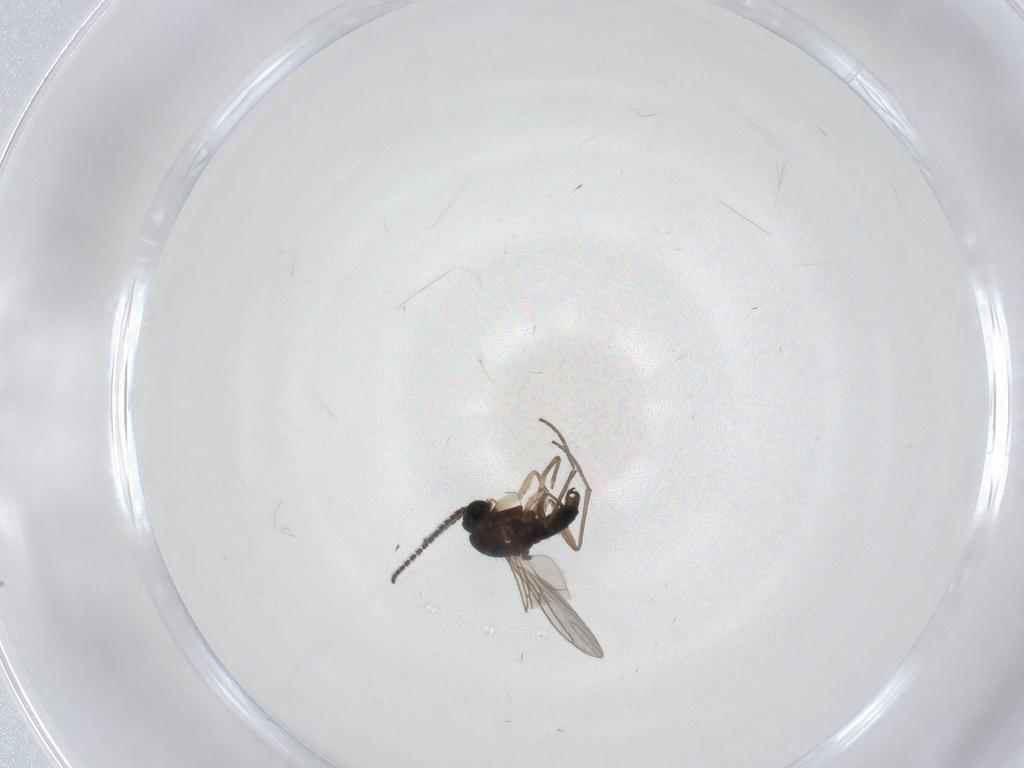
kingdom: Animalia
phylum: Arthropoda
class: Insecta
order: Diptera
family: Sciaridae
